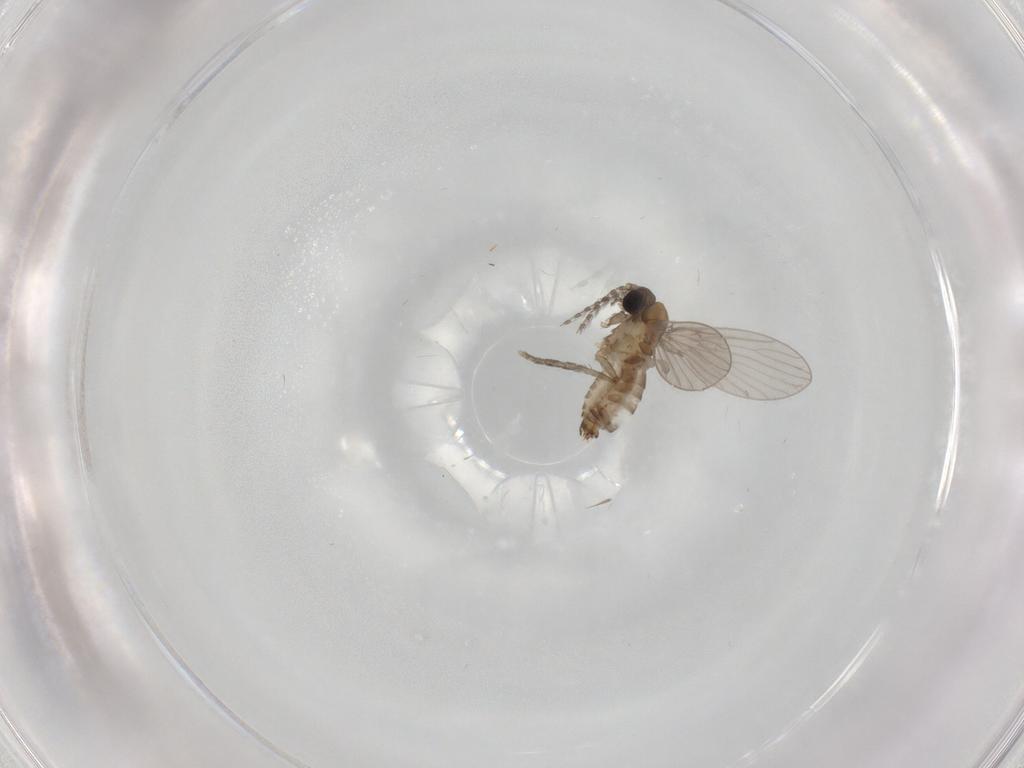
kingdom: Animalia
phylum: Arthropoda
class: Insecta
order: Diptera
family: Psychodidae
